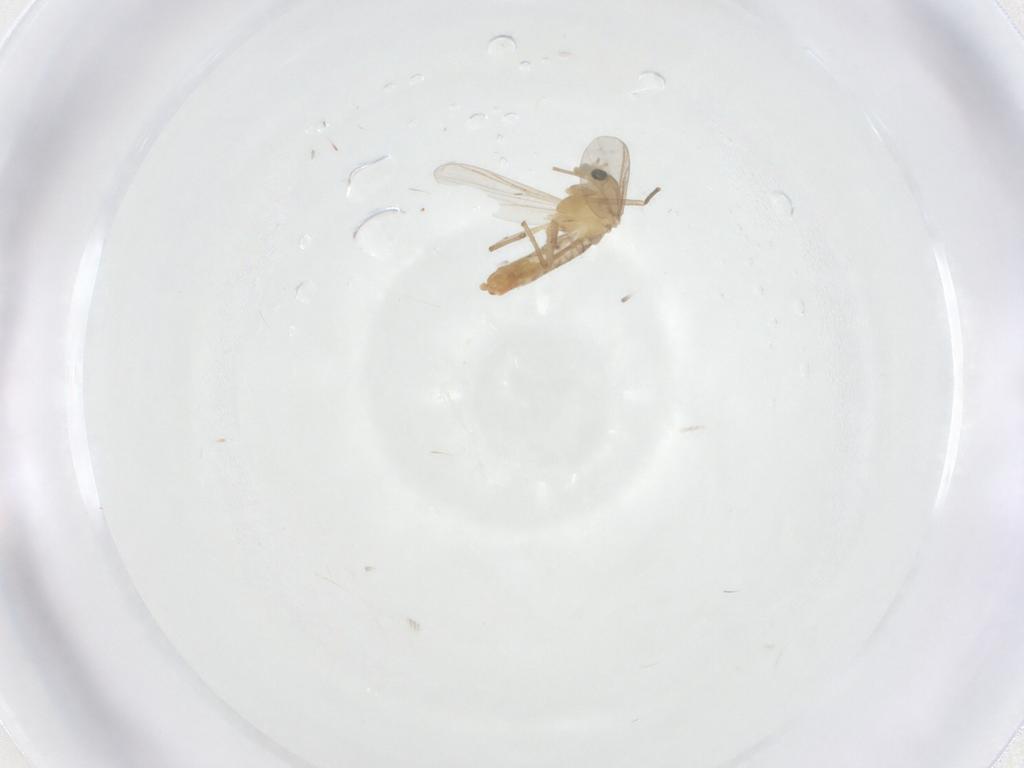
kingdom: Animalia
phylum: Arthropoda
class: Insecta
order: Diptera
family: Chironomidae
